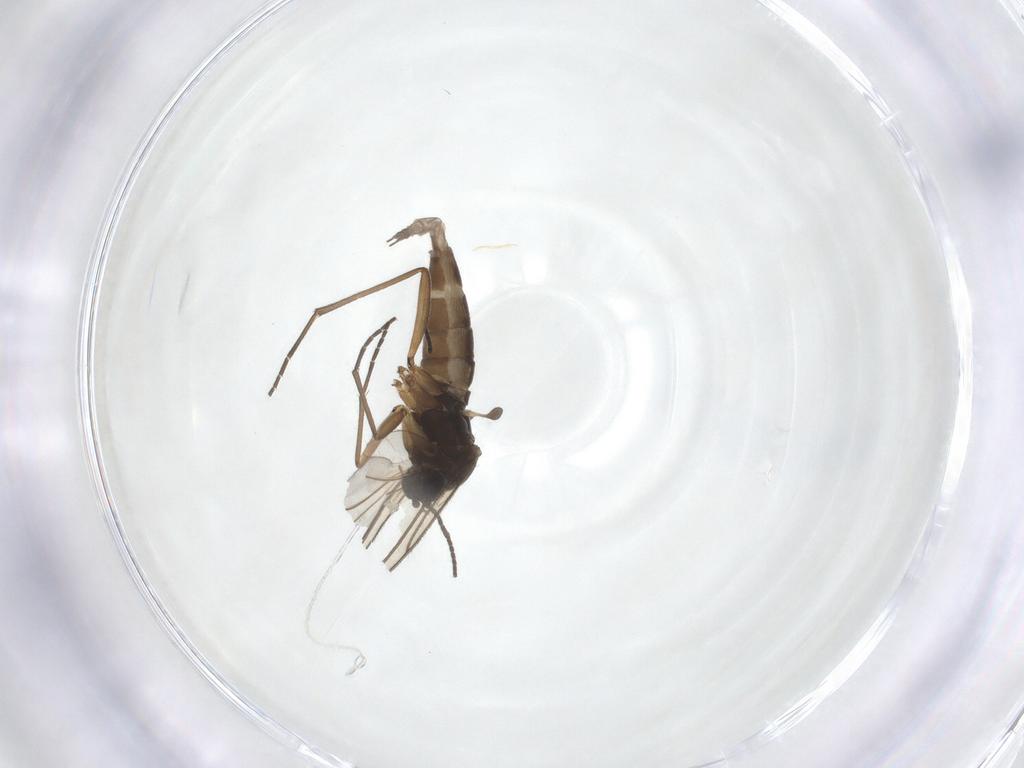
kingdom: Animalia
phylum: Arthropoda
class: Insecta
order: Diptera
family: Sciaridae
